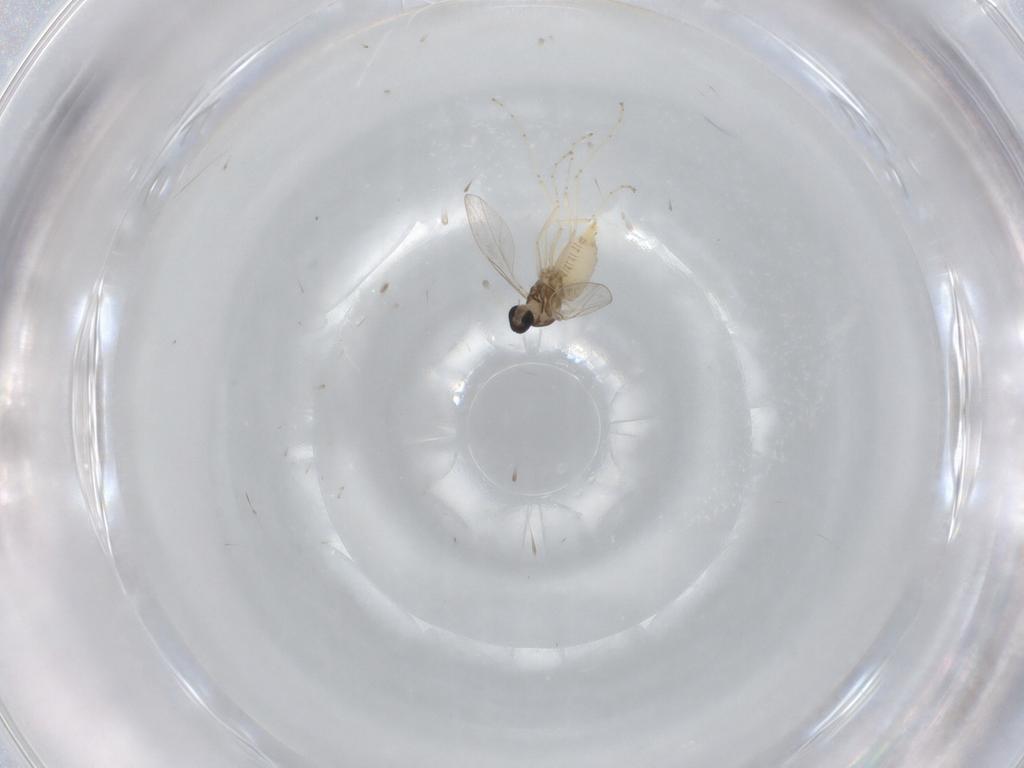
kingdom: Animalia
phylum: Arthropoda
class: Insecta
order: Diptera
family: Cecidomyiidae
